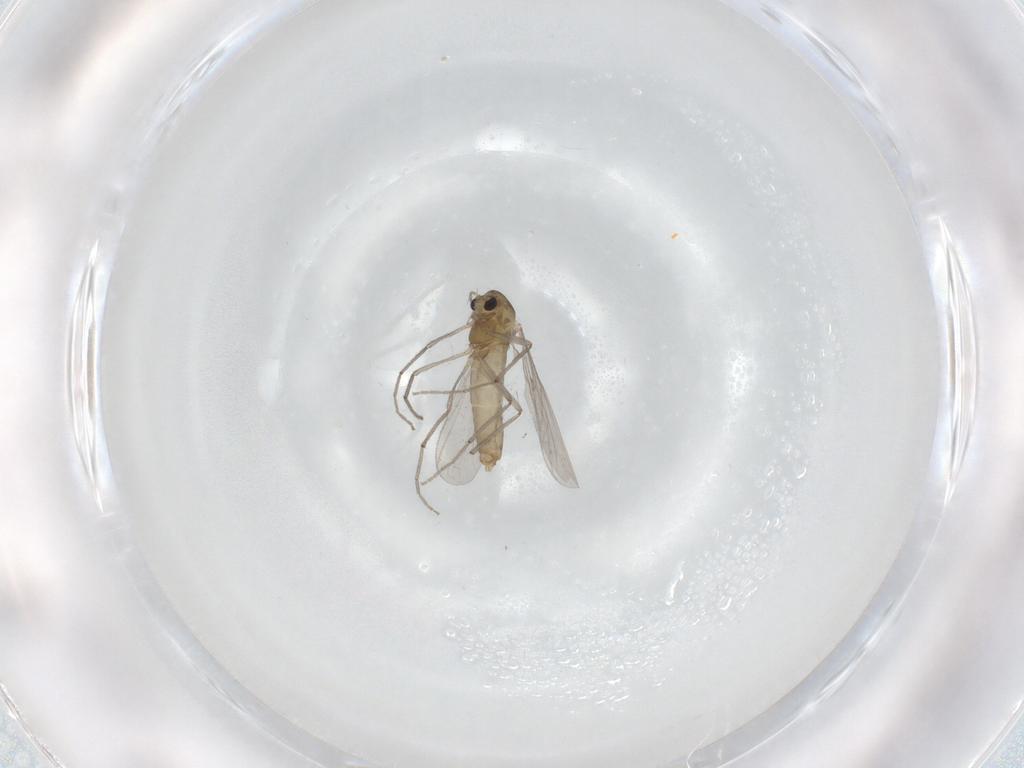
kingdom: Animalia
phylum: Arthropoda
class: Insecta
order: Diptera
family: Chironomidae
